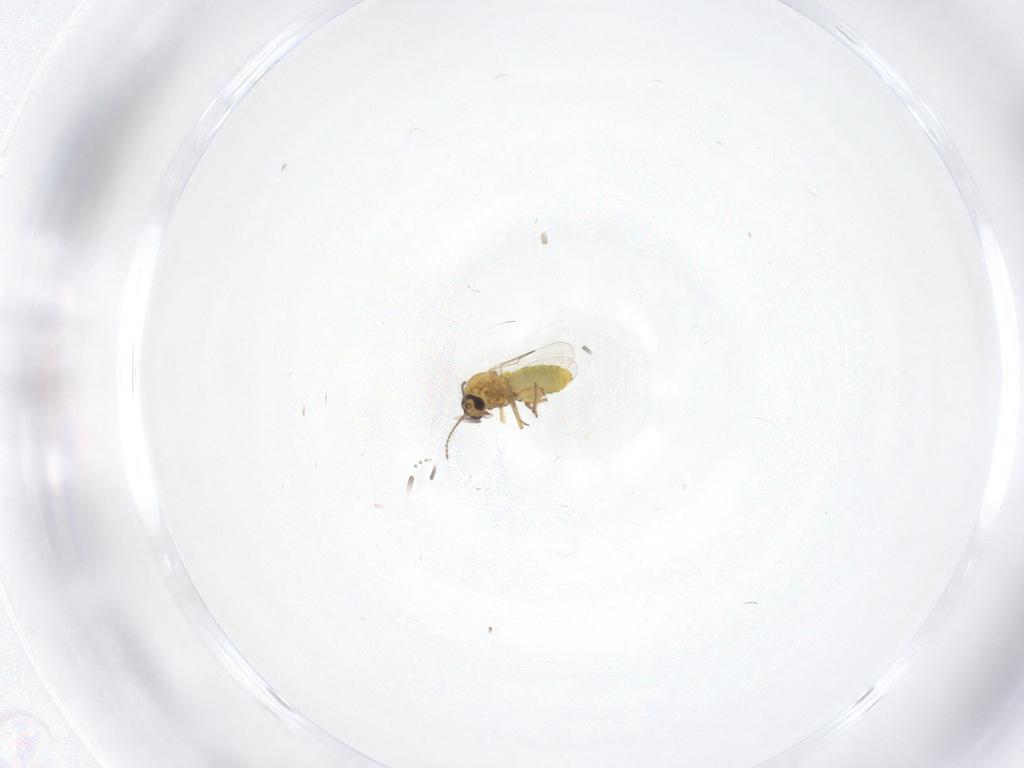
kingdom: Animalia
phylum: Arthropoda
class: Insecta
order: Diptera
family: Ceratopogonidae
